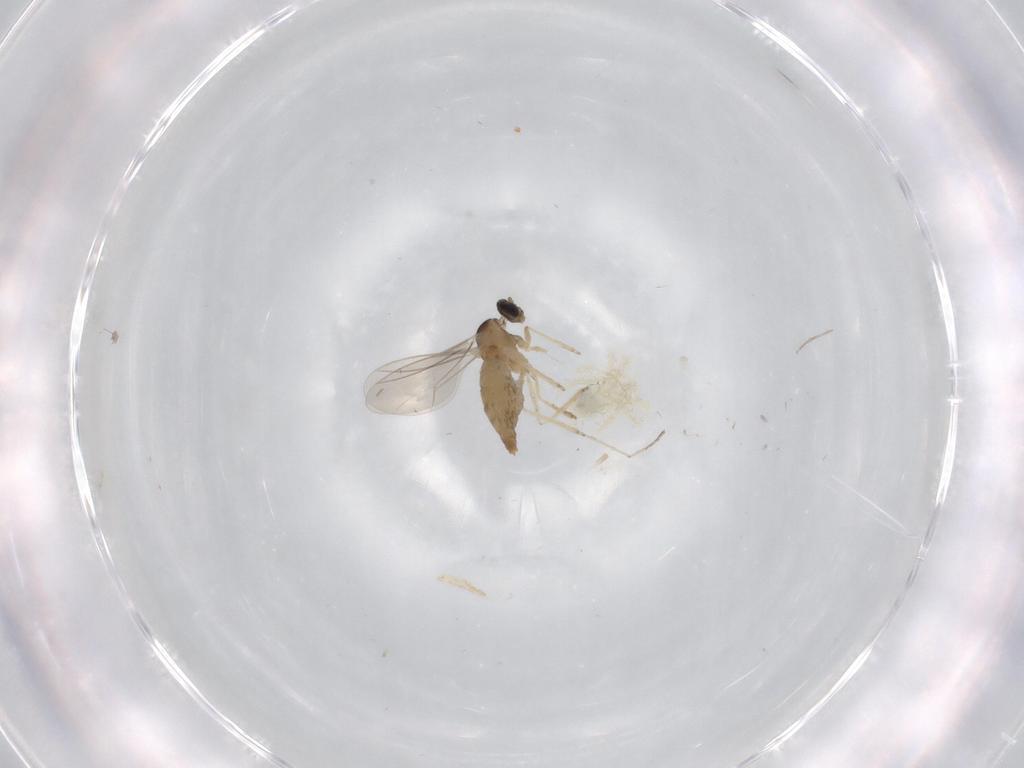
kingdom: Animalia
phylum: Arthropoda
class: Insecta
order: Diptera
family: Cecidomyiidae
